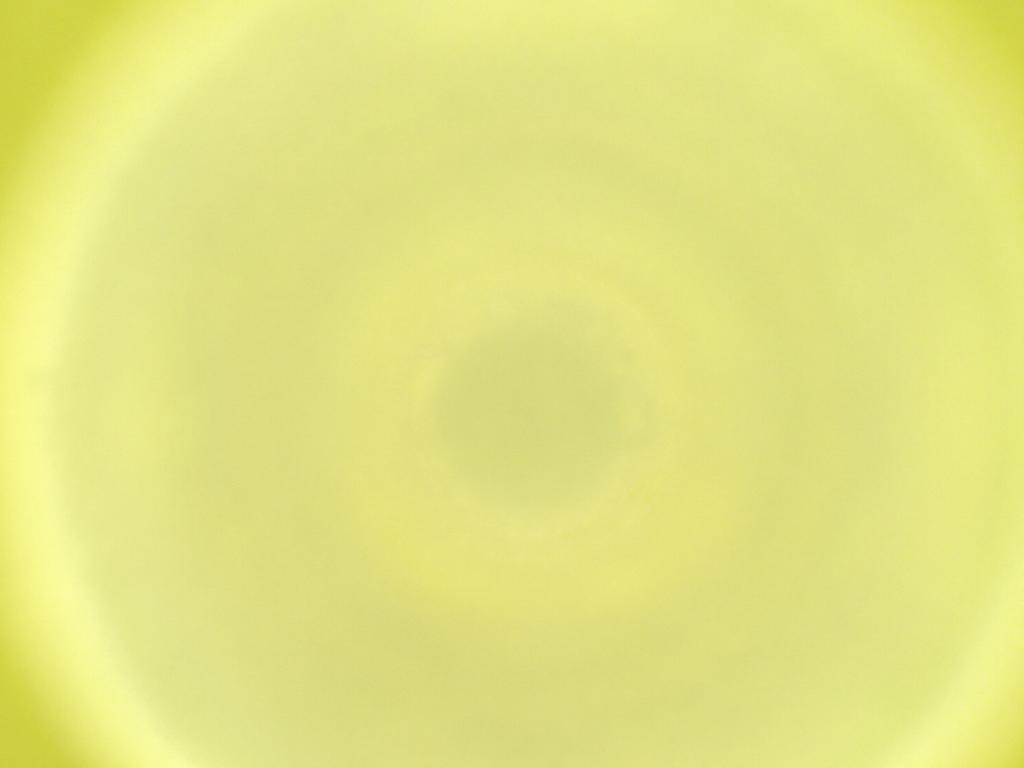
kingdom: Animalia
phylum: Arthropoda
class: Insecta
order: Diptera
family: Cecidomyiidae
